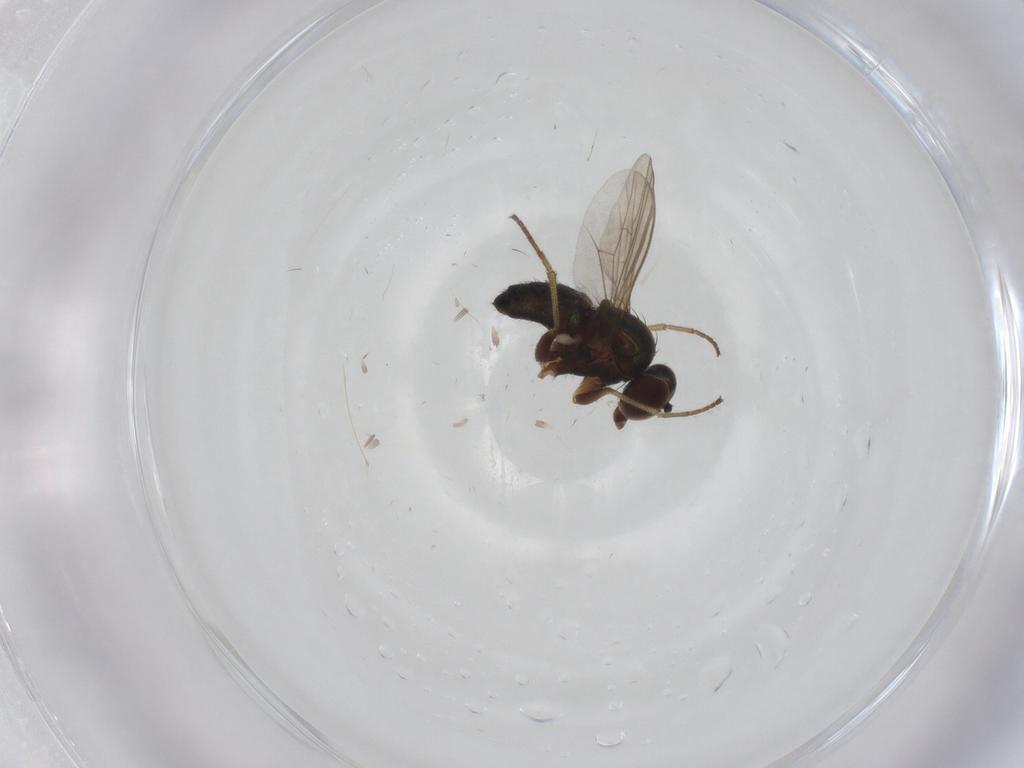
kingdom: Animalia
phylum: Arthropoda
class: Insecta
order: Diptera
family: Dolichopodidae
